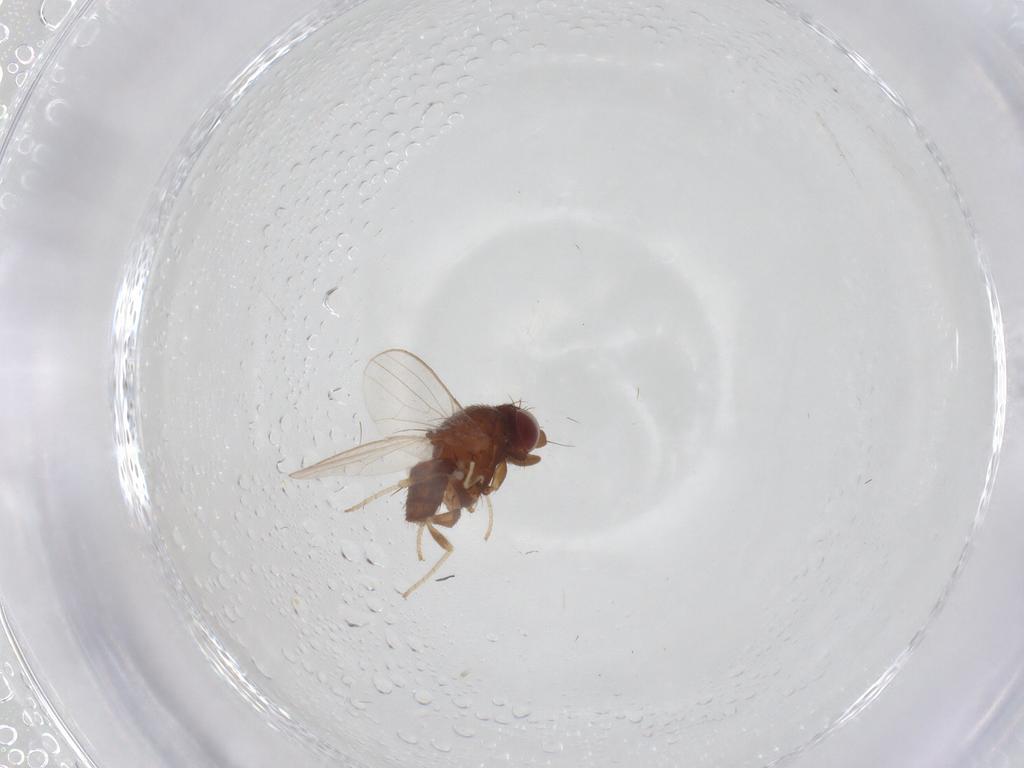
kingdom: Animalia
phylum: Arthropoda
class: Insecta
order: Diptera
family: Milichiidae
